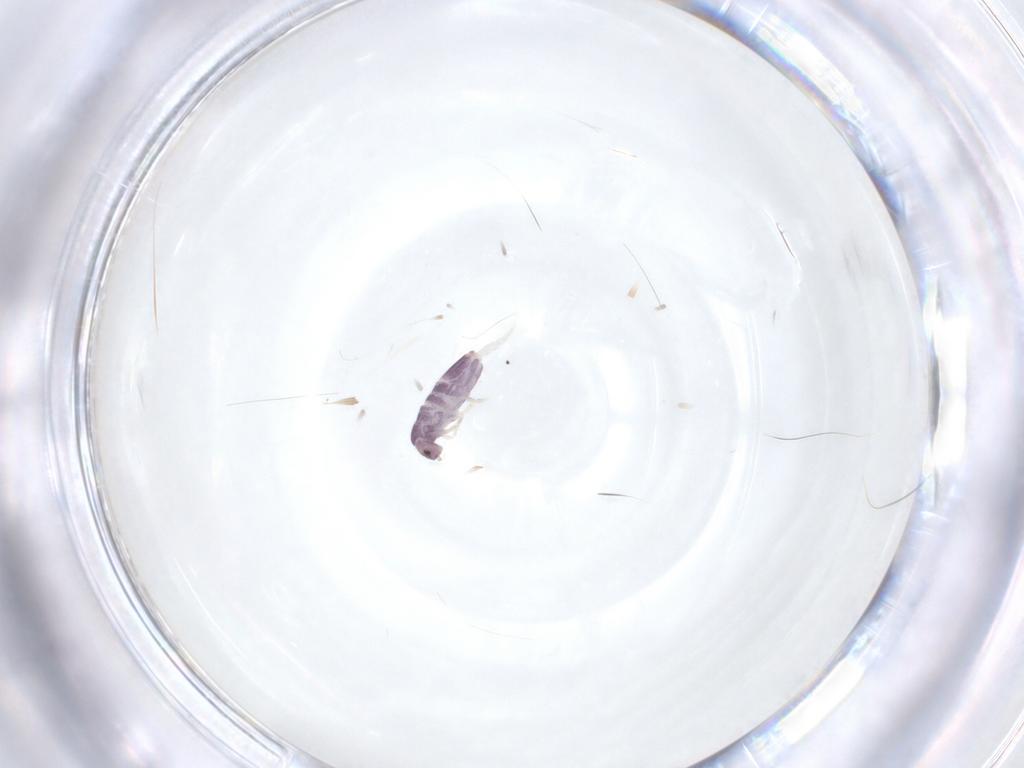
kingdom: Animalia
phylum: Arthropoda
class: Collembola
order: Entomobryomorpha
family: Entomobryidae
